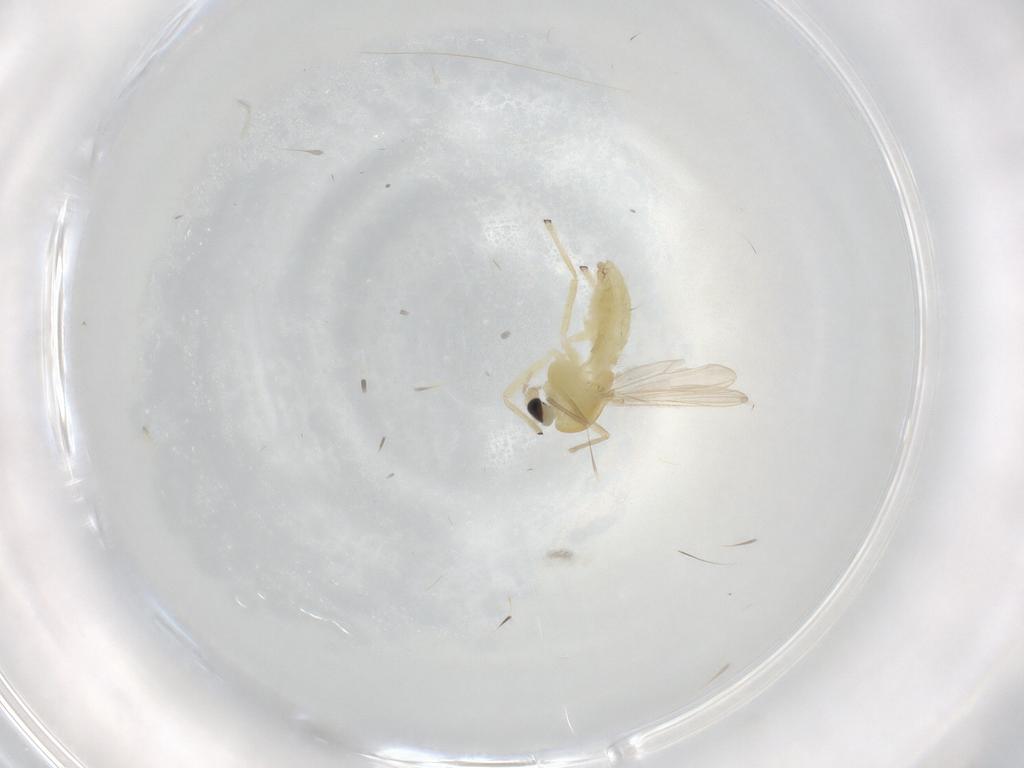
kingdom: Animalia
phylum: Arthropoda
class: Insecta
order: Diptera
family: Chironomidae
